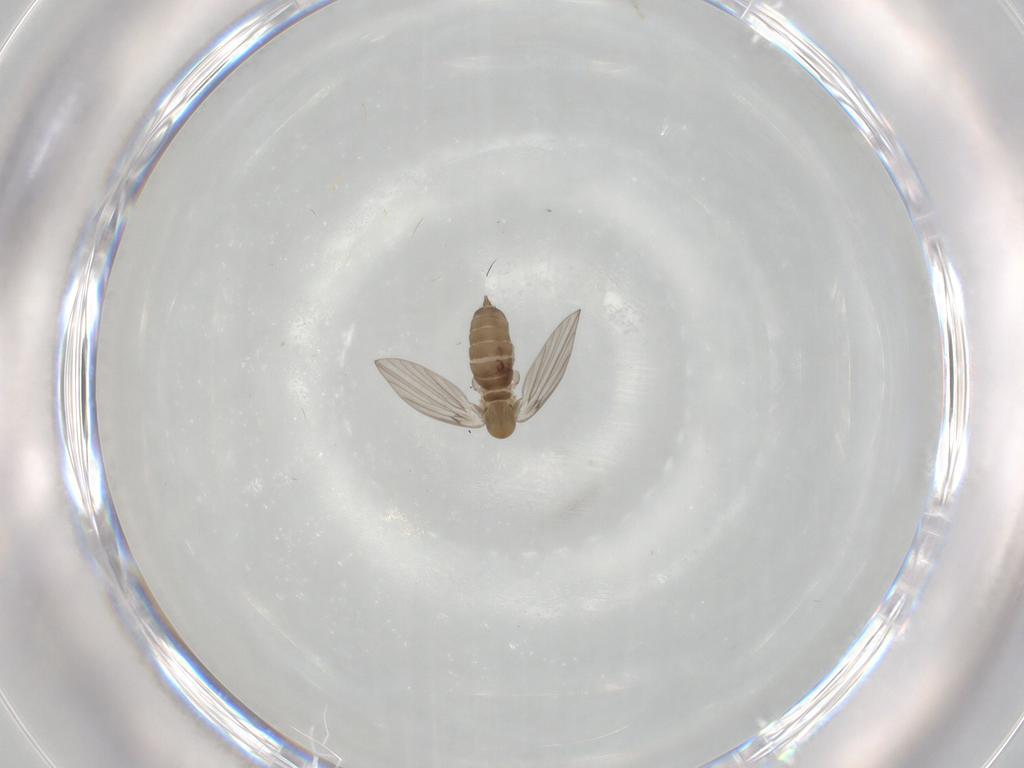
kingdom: Animalia
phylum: Arthropoda
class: Insecta
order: Diptera
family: Psychodidae
